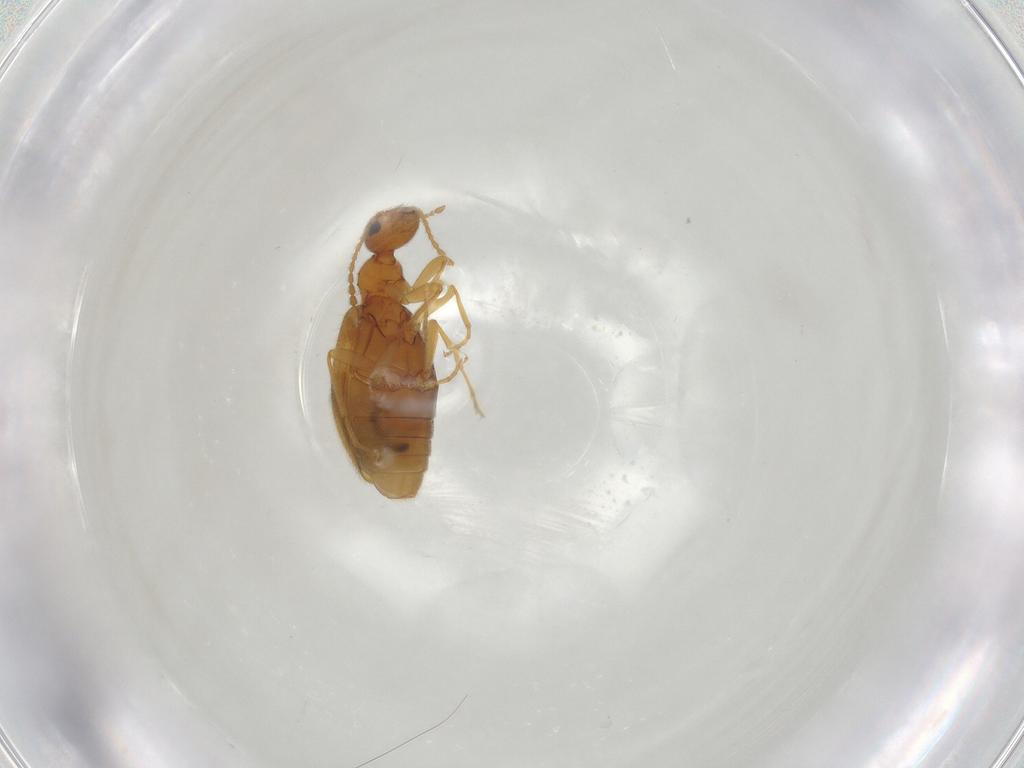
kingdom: Animalia
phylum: Arthropoda
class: Insecta
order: Coleoptera
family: Anthicidae
